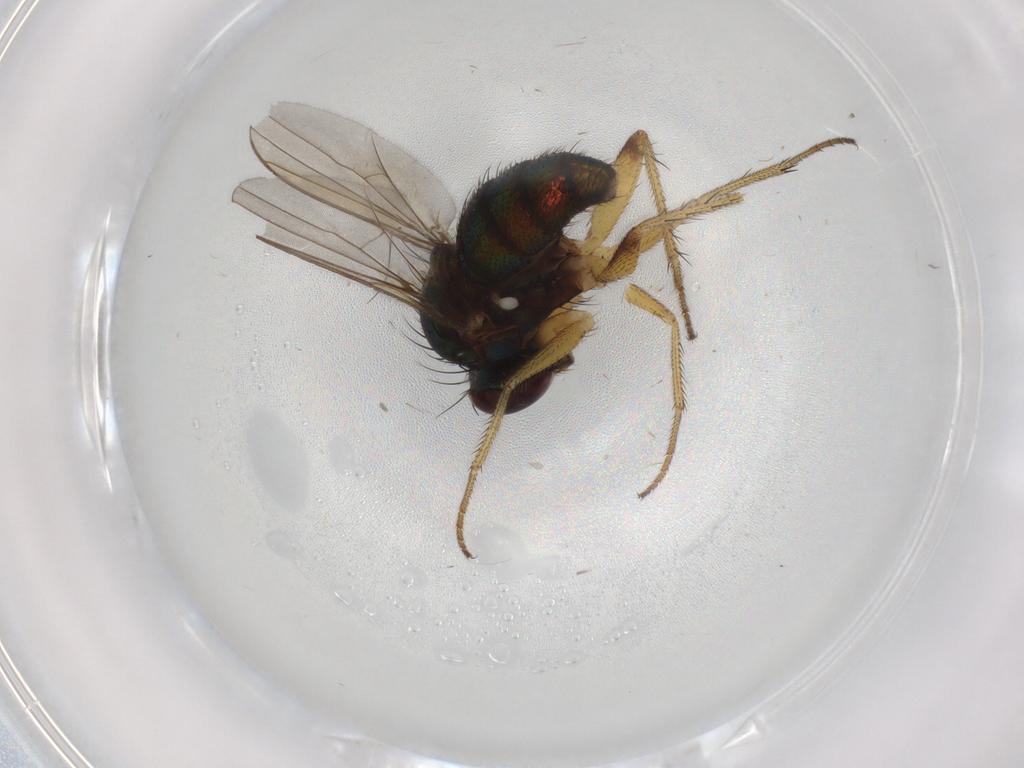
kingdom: Animalia
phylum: Arthropoda
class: Insecta
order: Diptera
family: Dolichopodidae
